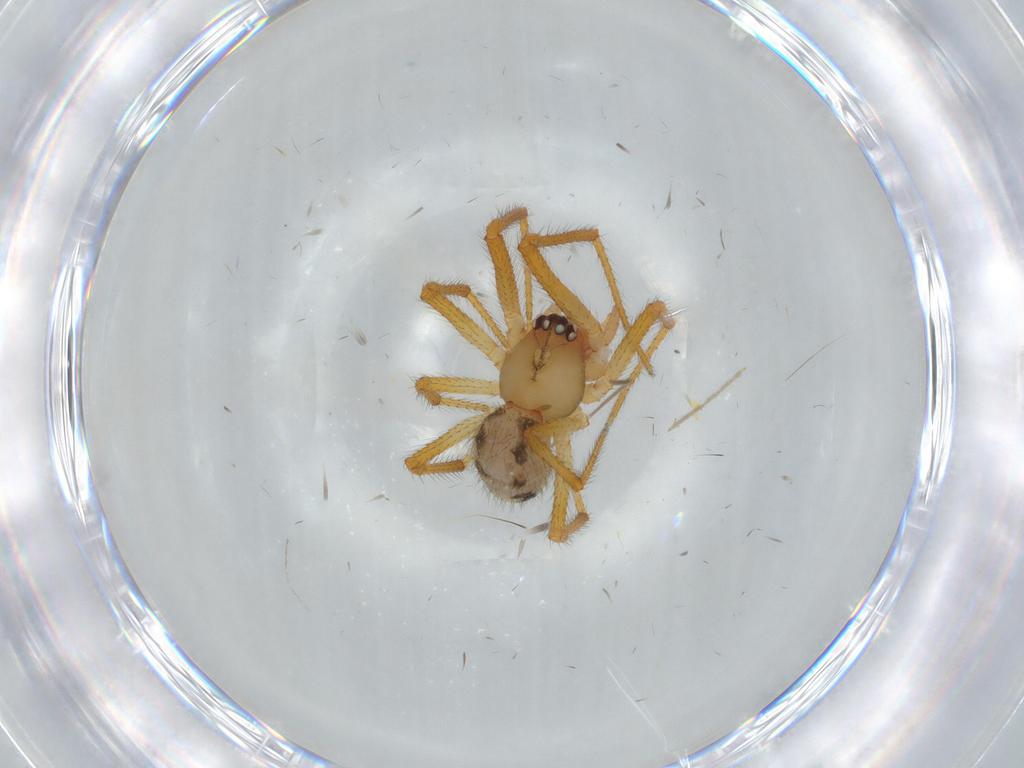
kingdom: Animalia
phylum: Arthropoda
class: Arachnida
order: Araneae
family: Theridiidae
